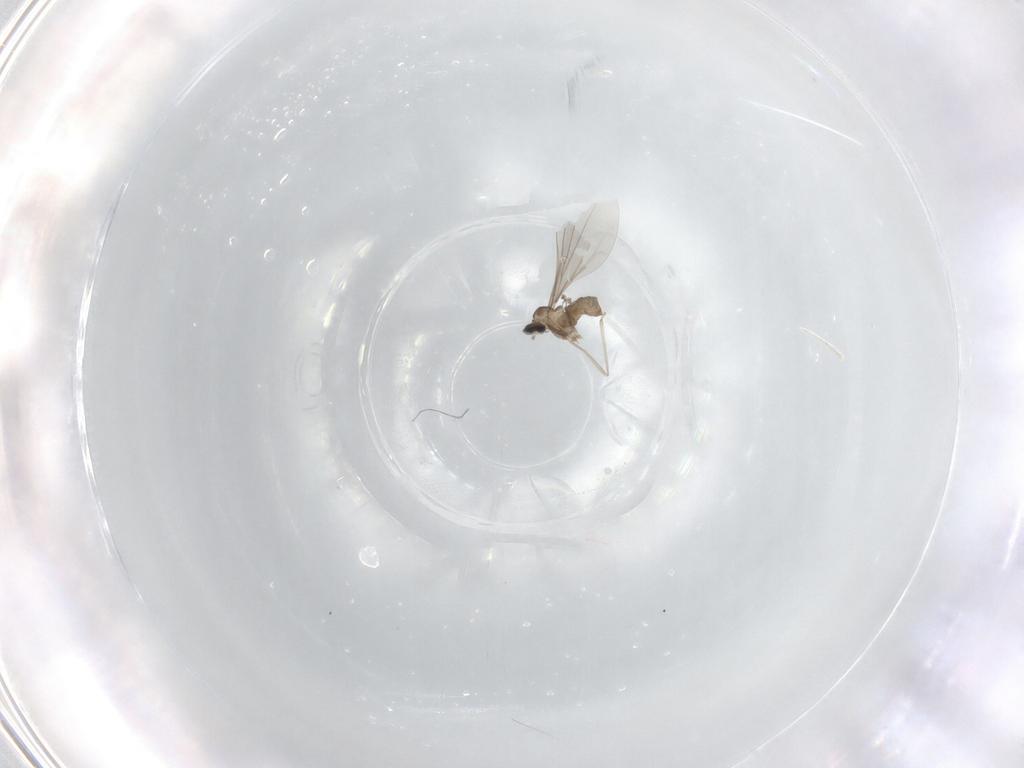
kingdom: Animalia
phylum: Arthropoda
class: Insecta
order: Diptera
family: Cecidomyiidae
